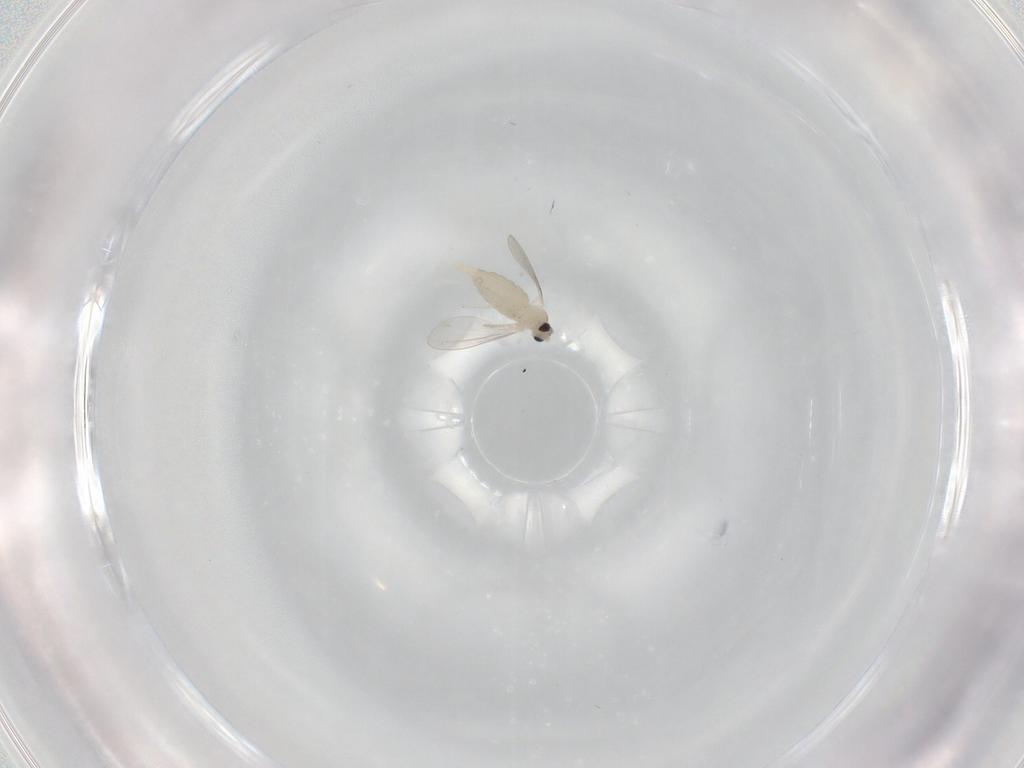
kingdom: Animalia
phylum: Arthropoda
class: Insecta
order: Diptera
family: Cecidomyiidae
